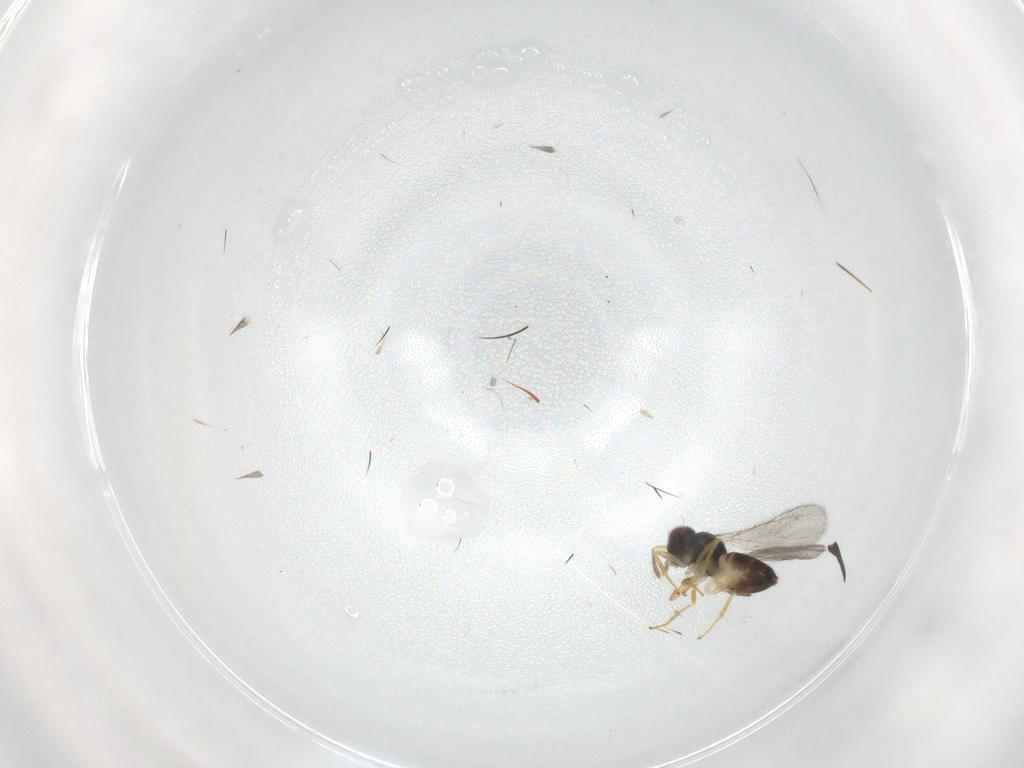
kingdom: Animalia
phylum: Arthropoda
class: Insecta
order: Hymenoptera
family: Eulophidae
